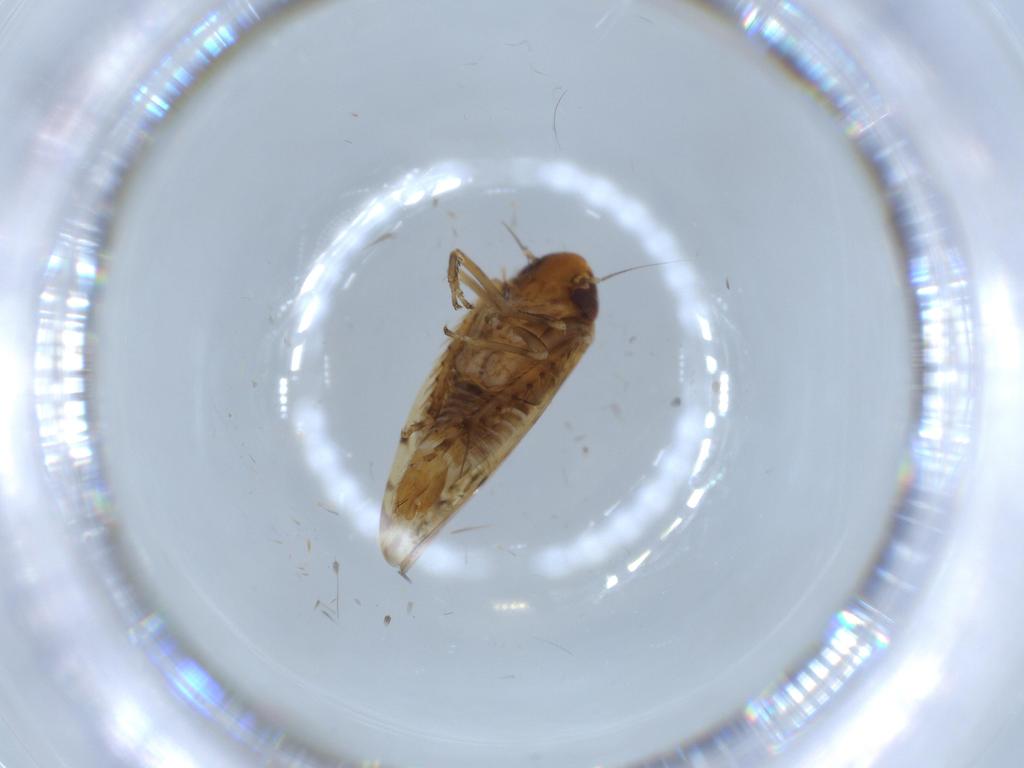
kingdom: Animalia
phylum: Arthropoda
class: Insecta
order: Hemiptera
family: Cicadellidae
